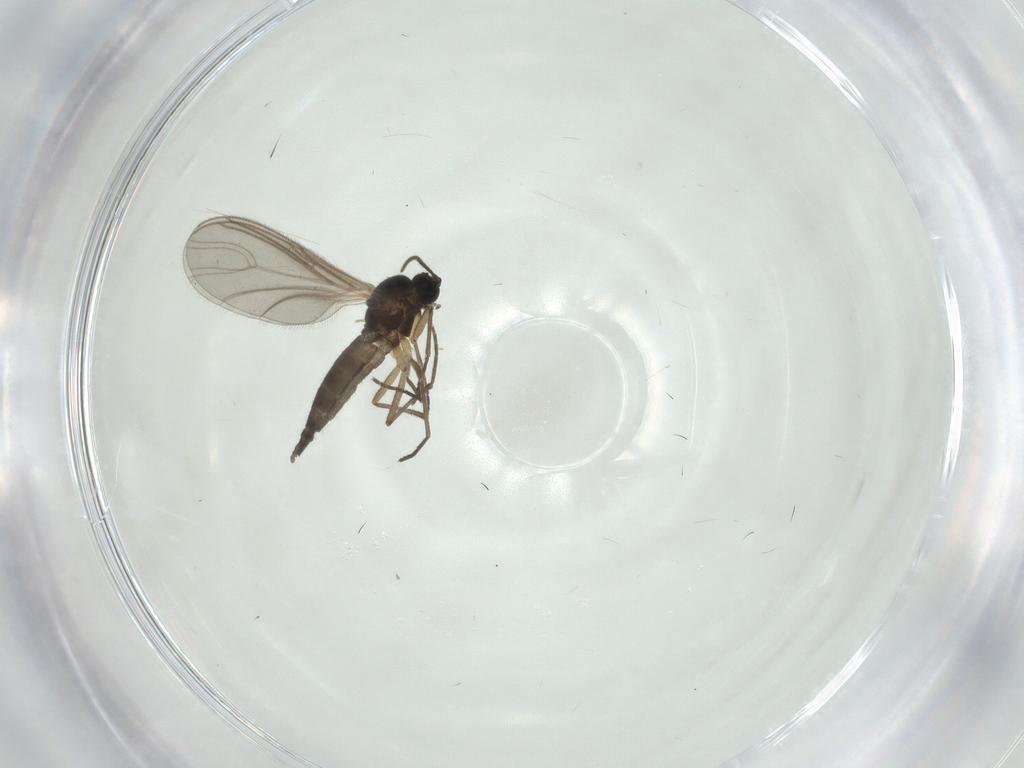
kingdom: Animalia
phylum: Arthropoda
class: Insecta
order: Diptera
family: Sciaridae
